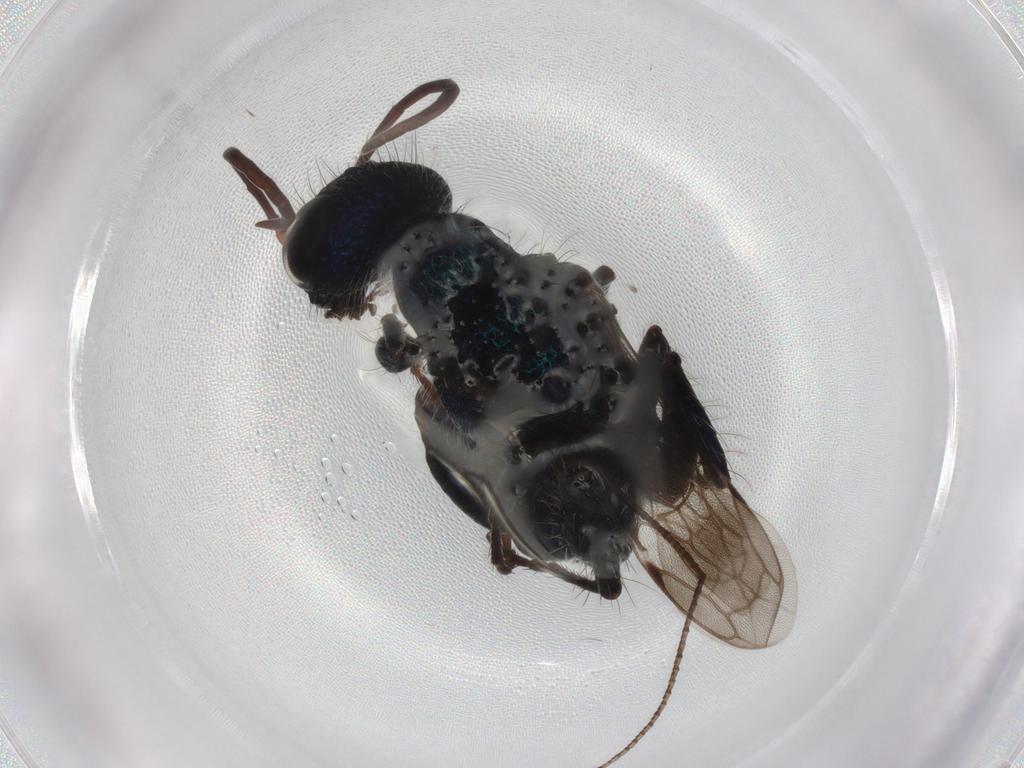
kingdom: Animalia
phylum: Arthropoda
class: Insecta
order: Hymenoptera
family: Ampulicidae
